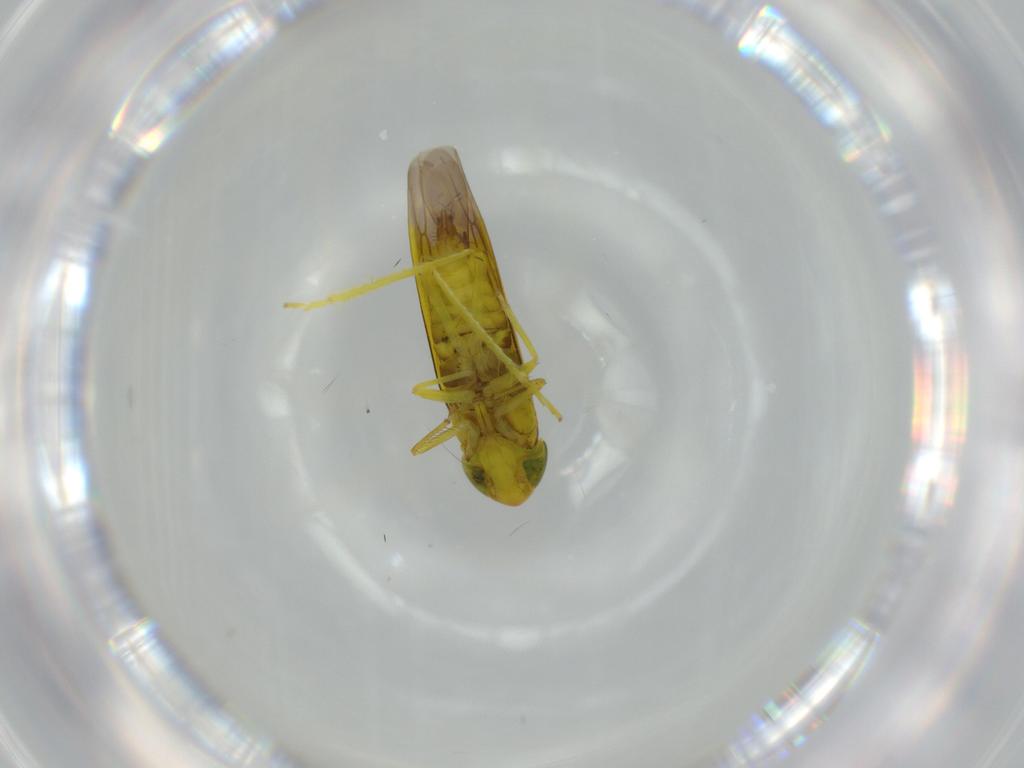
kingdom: Animalia
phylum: Arthropoda
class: Insecta
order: Hemiptera
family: Cicadellidae
